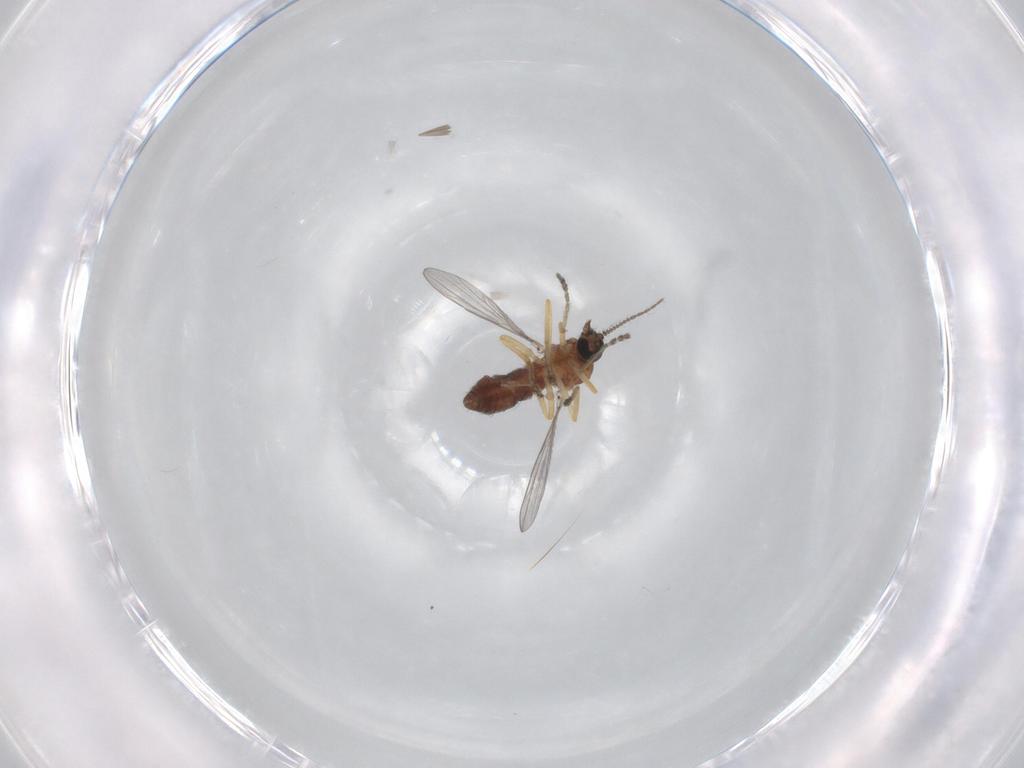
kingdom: Animalia
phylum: Arthropoda
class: Insecta
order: Diptera
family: Ceratopogonidae
